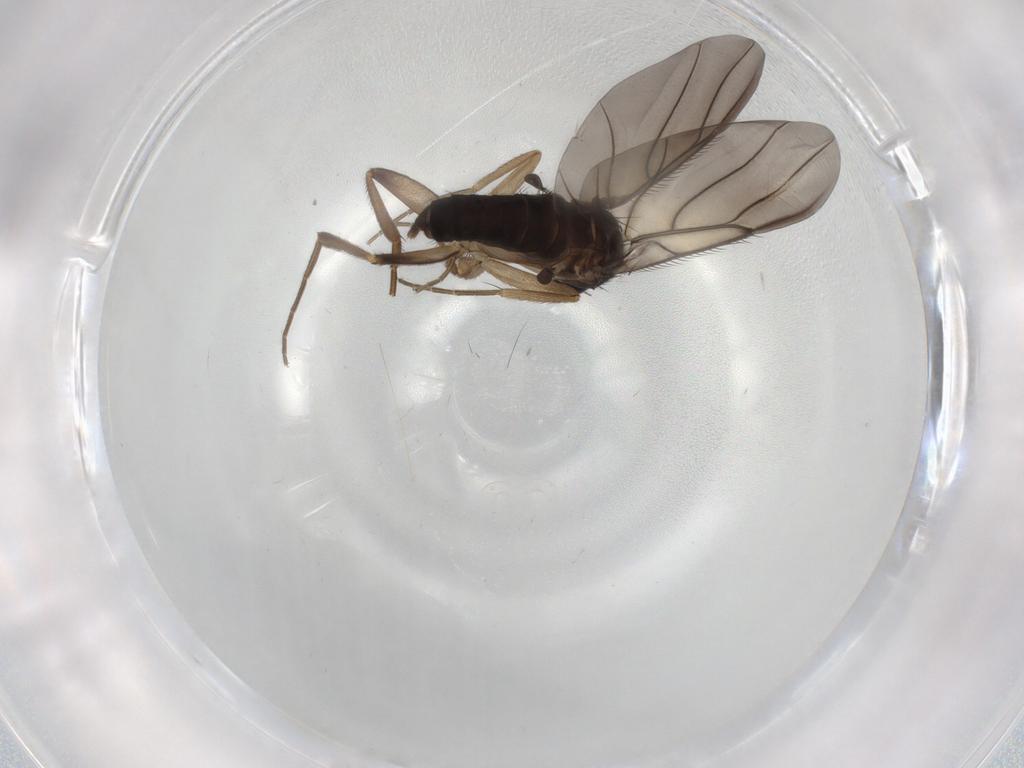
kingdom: Animalia
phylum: Arthropoda
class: Insecta
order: Diptera
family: Phoridae
